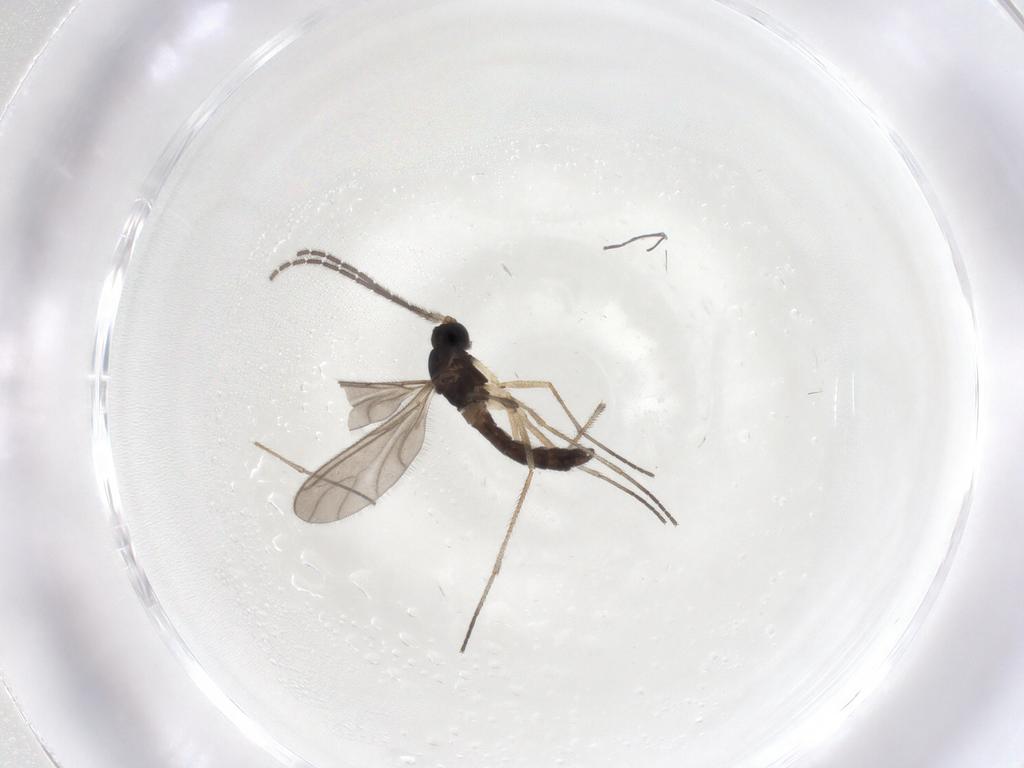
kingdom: Animalia
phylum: Arthropoda
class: Insecta
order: Diptera
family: Sciaridae
